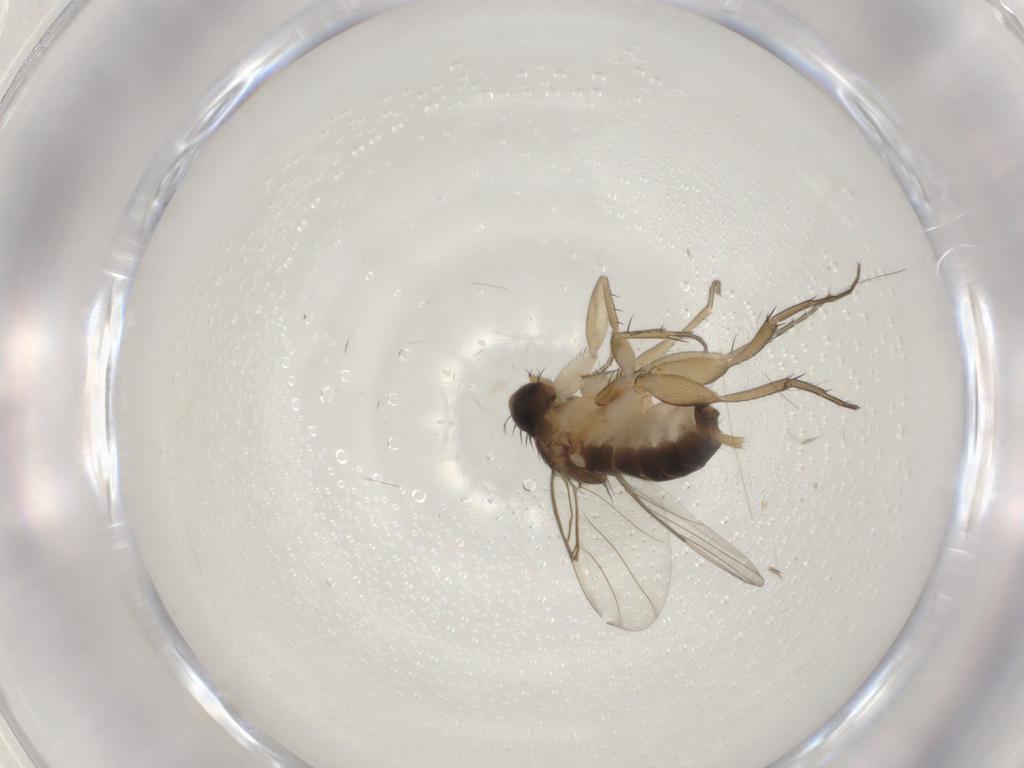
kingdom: Animalia
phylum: Arthropoda
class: Insecta
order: Diptera
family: Phoridae
